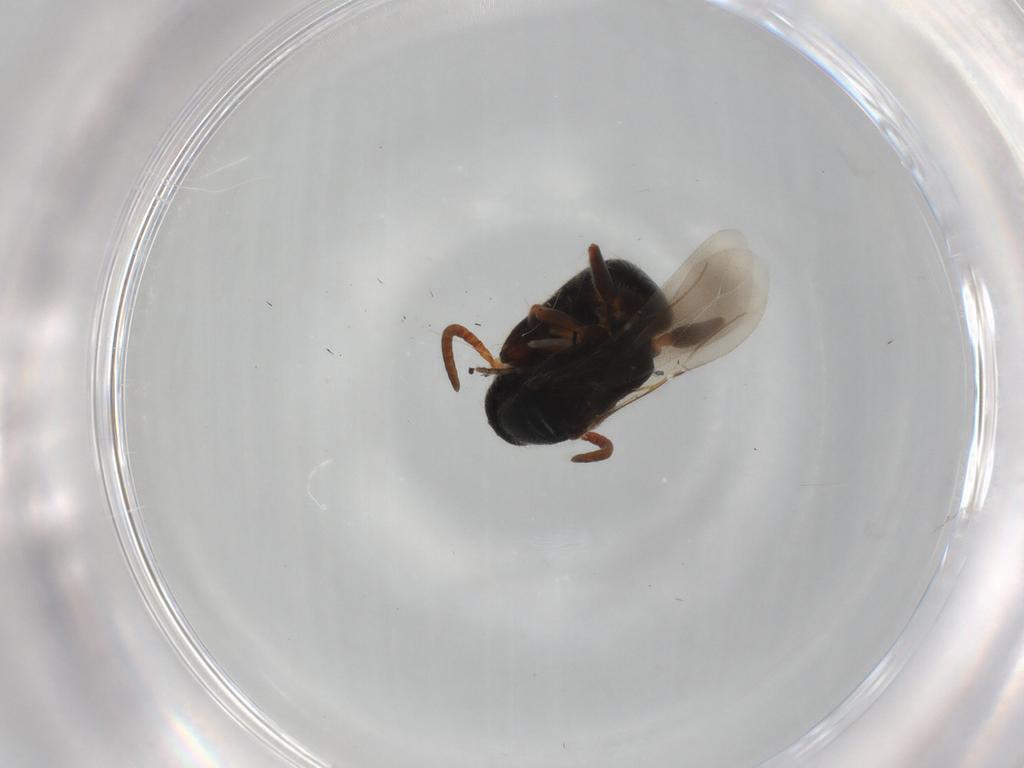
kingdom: Animalia
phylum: Arthropoda
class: Insecta
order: Hymenoptera
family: Bethylidae
